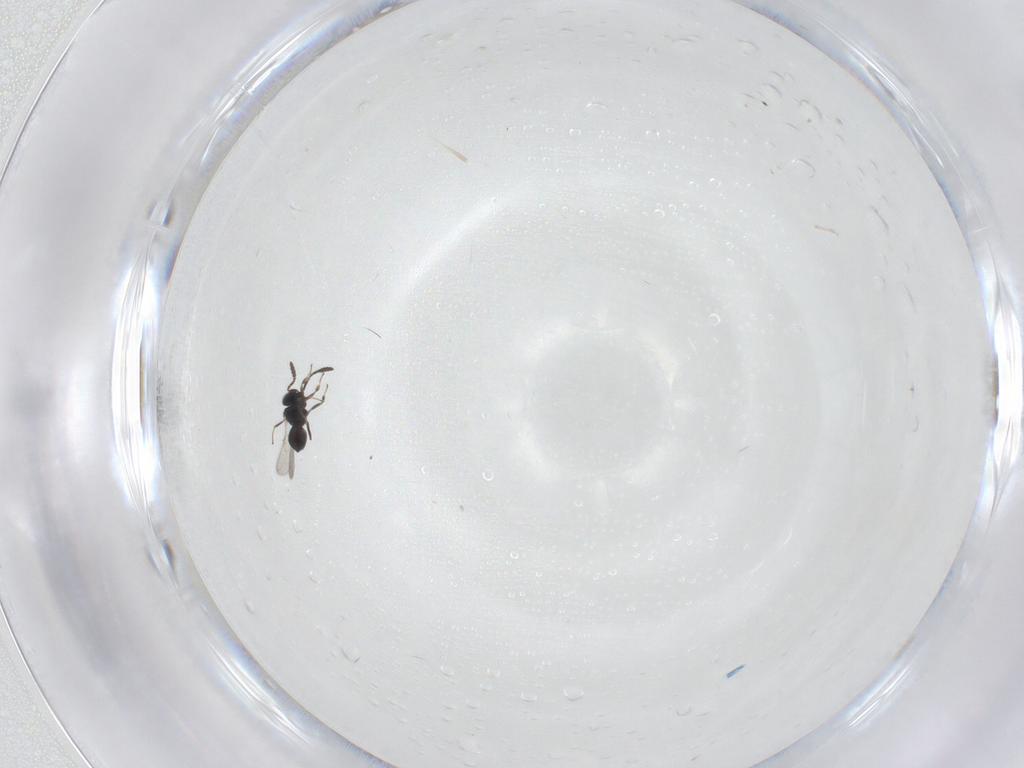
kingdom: Animalia
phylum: Arthropoda
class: Insecta
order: Hymenoptera
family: Scelionidae
